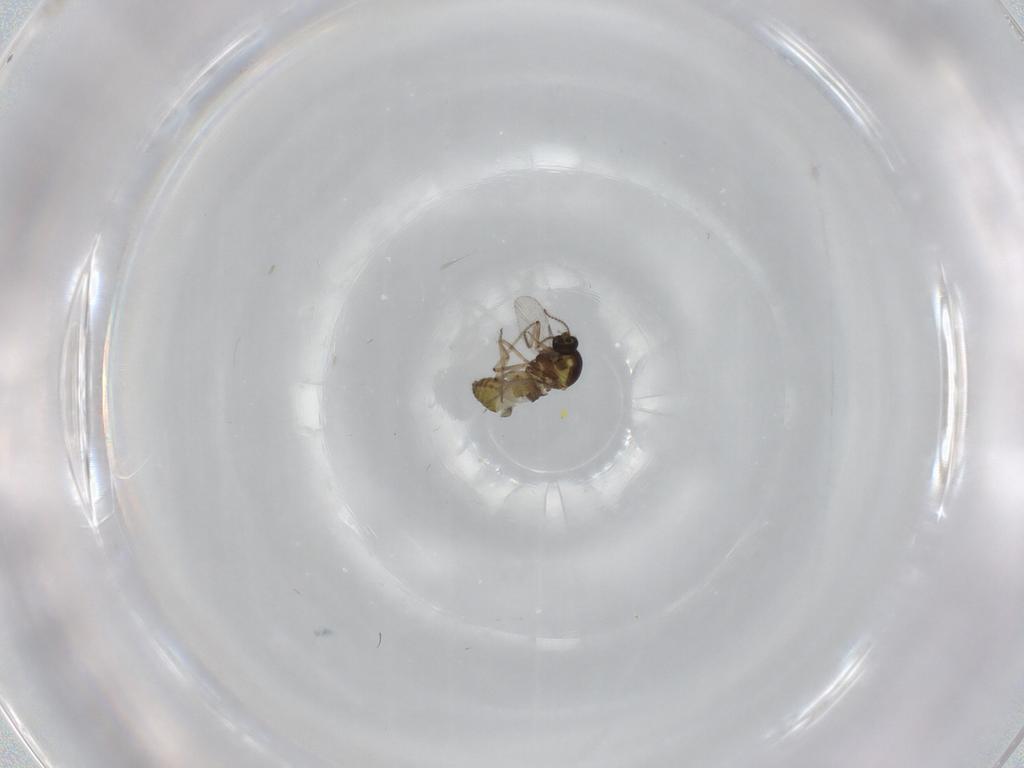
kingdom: Animalia
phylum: Arthropoda
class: Insecta
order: Diptera
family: Ceratopogonidae
